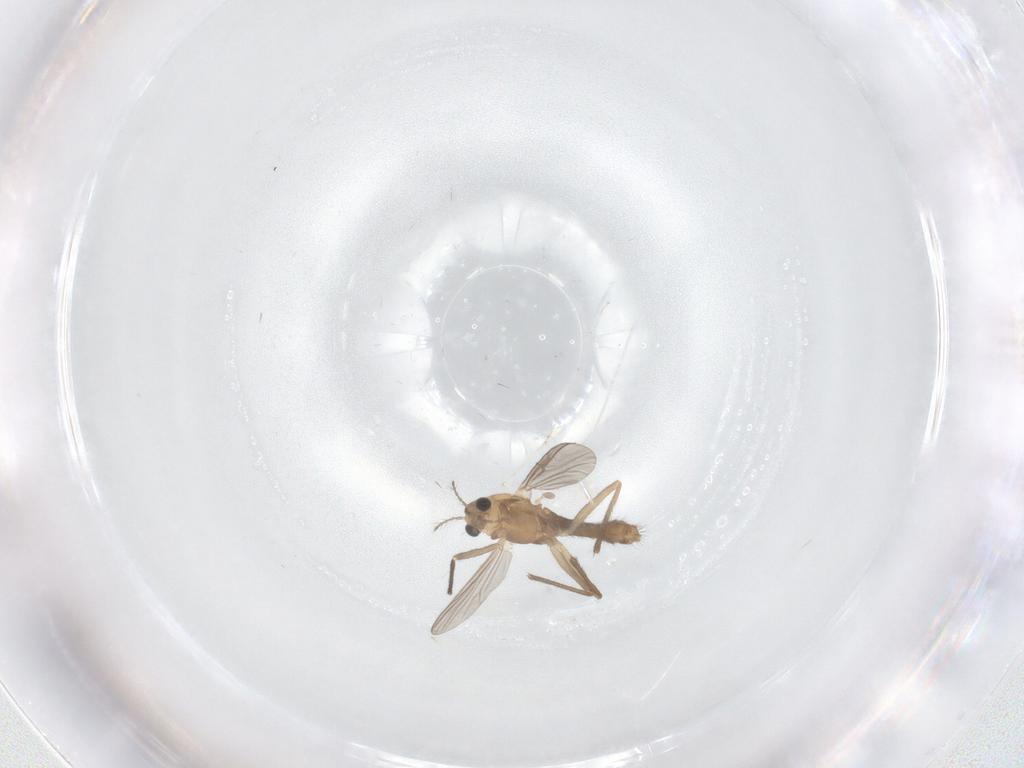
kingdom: Animalia
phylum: Arthropoda
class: Insecta
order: Diptera
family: Chironomidae
